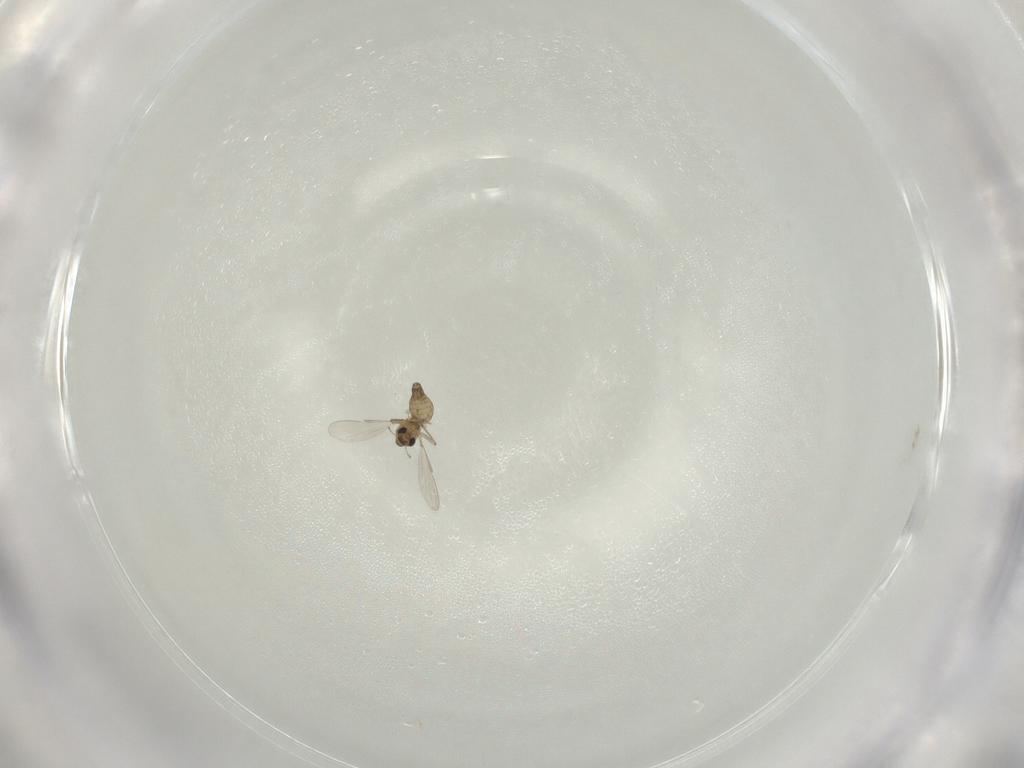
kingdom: Animalia
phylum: Arthropoda
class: Insecta
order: Diptera
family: Chironomidae
